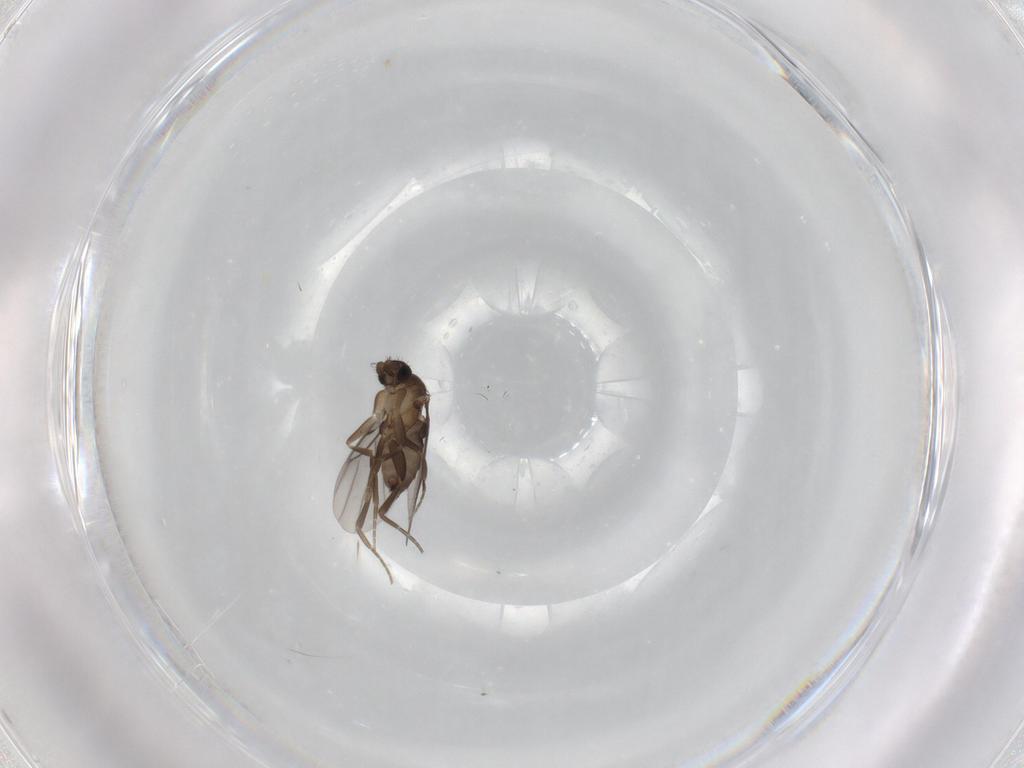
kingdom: Animalia
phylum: Arthropoda
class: Insecta
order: Diptera
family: Phoridae
